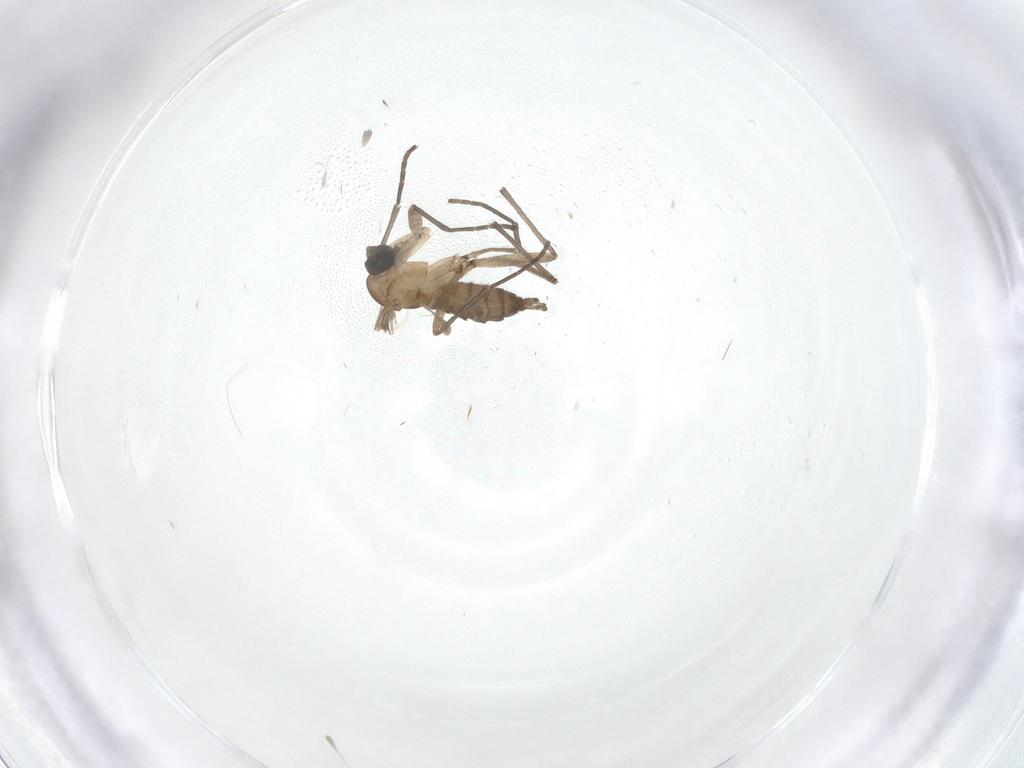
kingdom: Animalia
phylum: Arthropoda
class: Insecta
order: Diptera
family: Sciaridae
